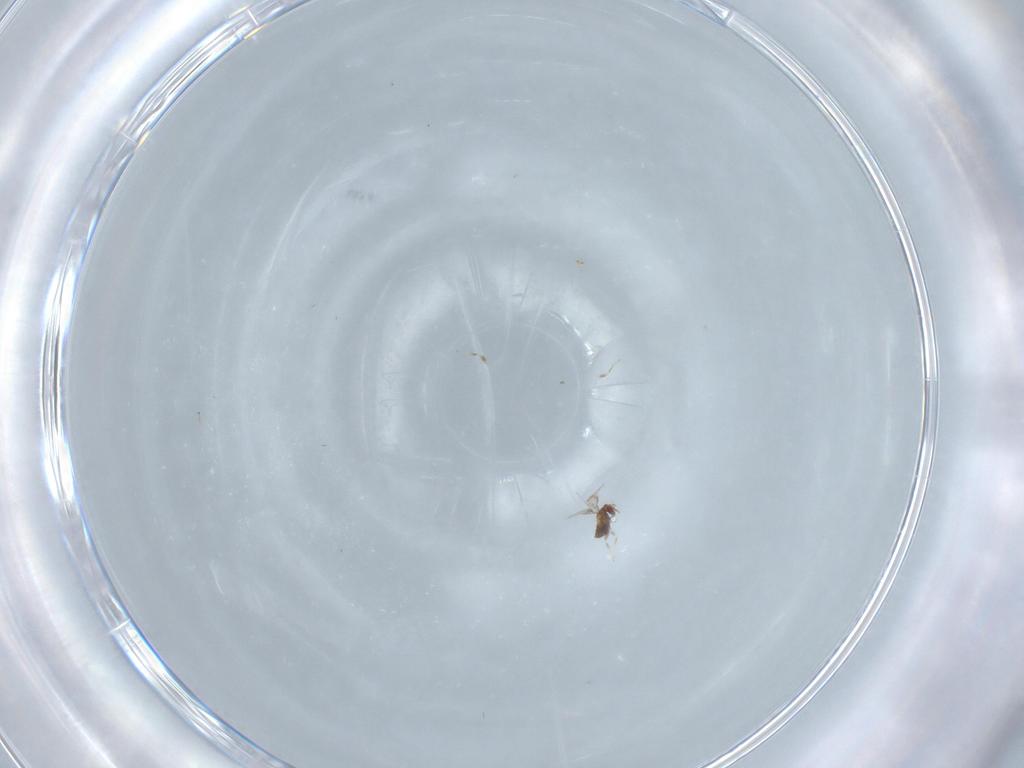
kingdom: Animalia
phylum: Arthropoda
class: Insecta
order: Hymenoptera
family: Trichogrammatidae
